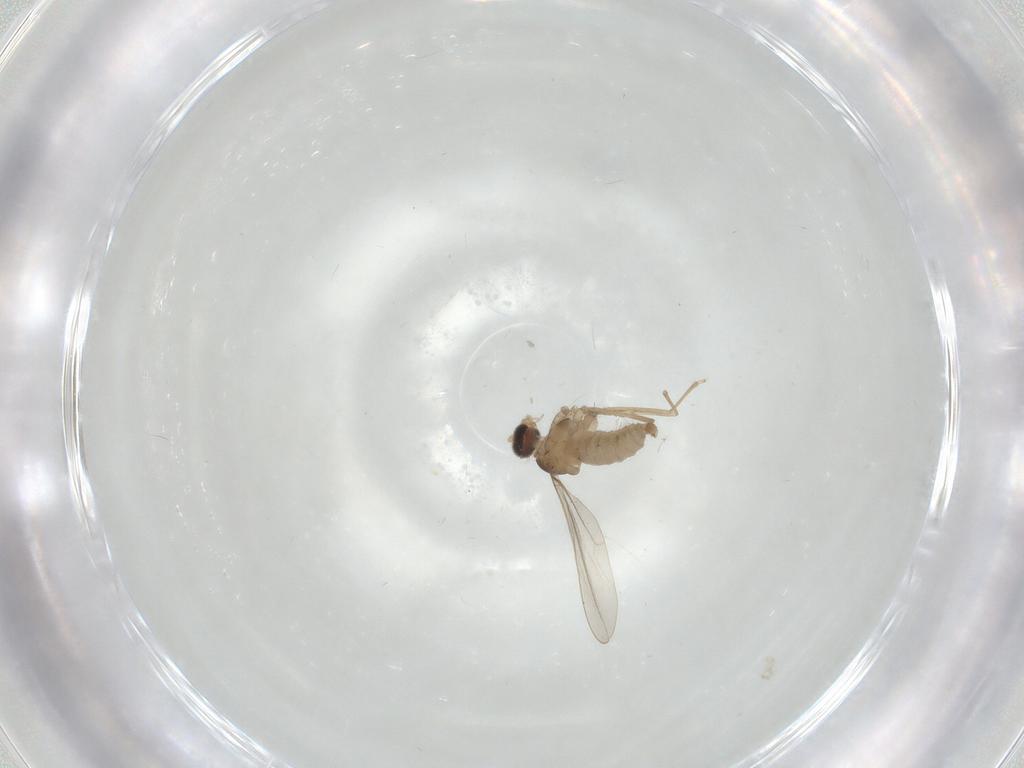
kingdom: Animalia
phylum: Arthropoda
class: Insecta
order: Diptera
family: Cecidomyiidae
